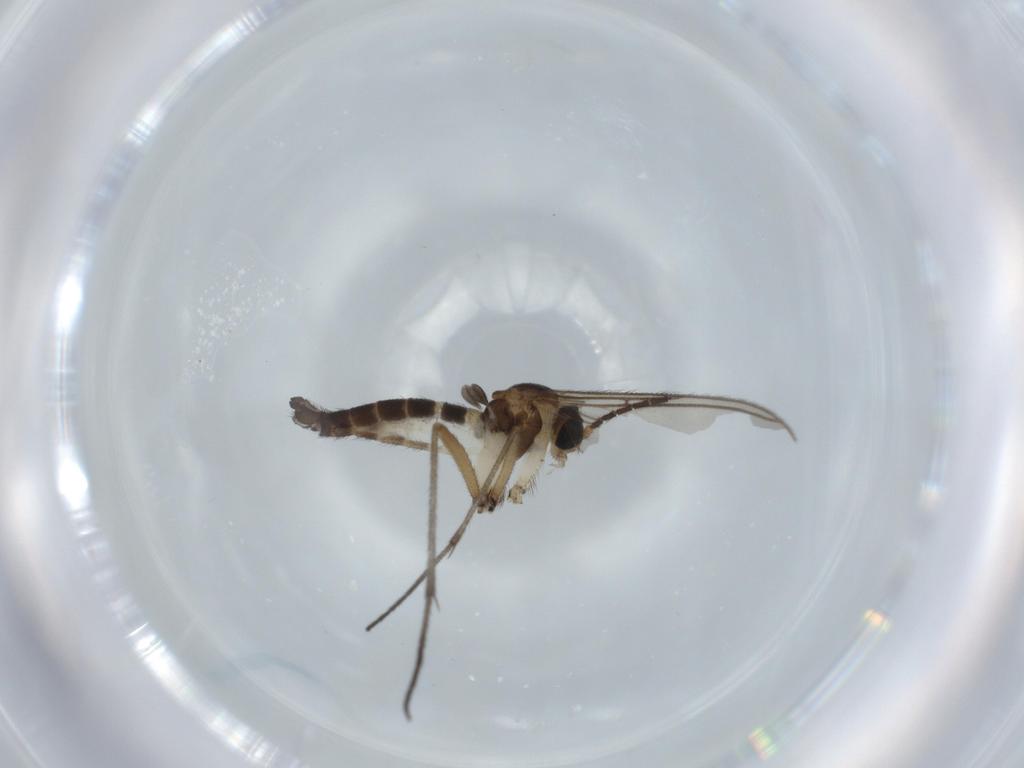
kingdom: Animalia
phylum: Arthropoda
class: Insecta
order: Diptera
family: Sciaridae
